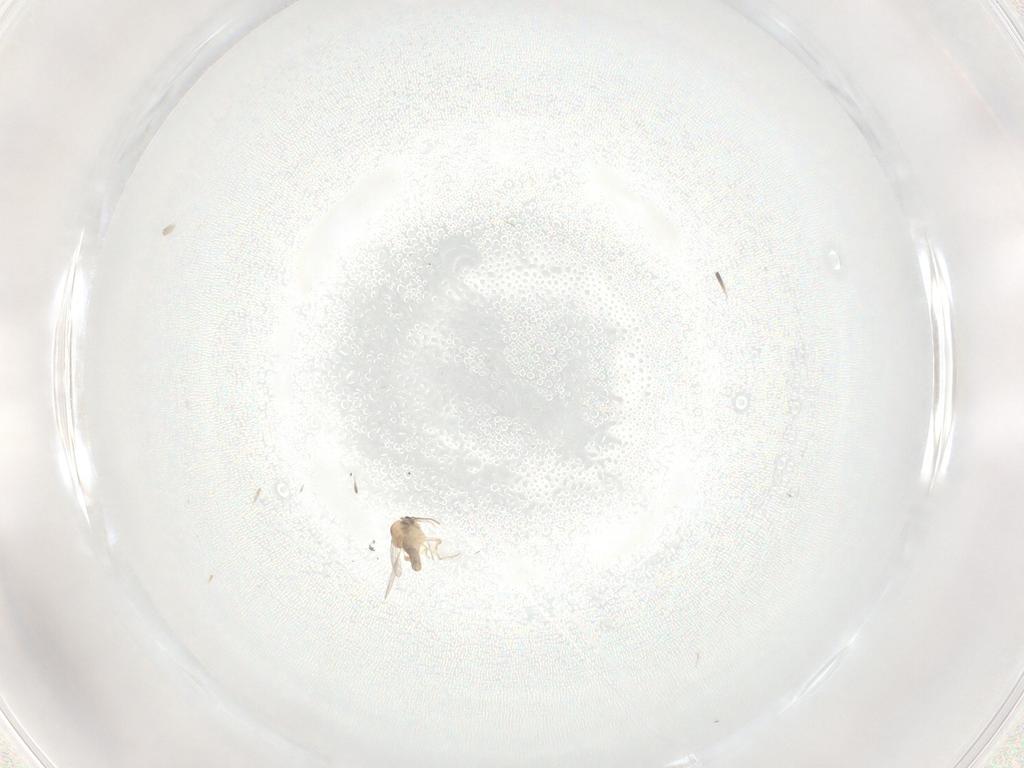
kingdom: Animalia
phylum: Arthropoda
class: Insecta
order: Diptera
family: Ceratopogonidae
